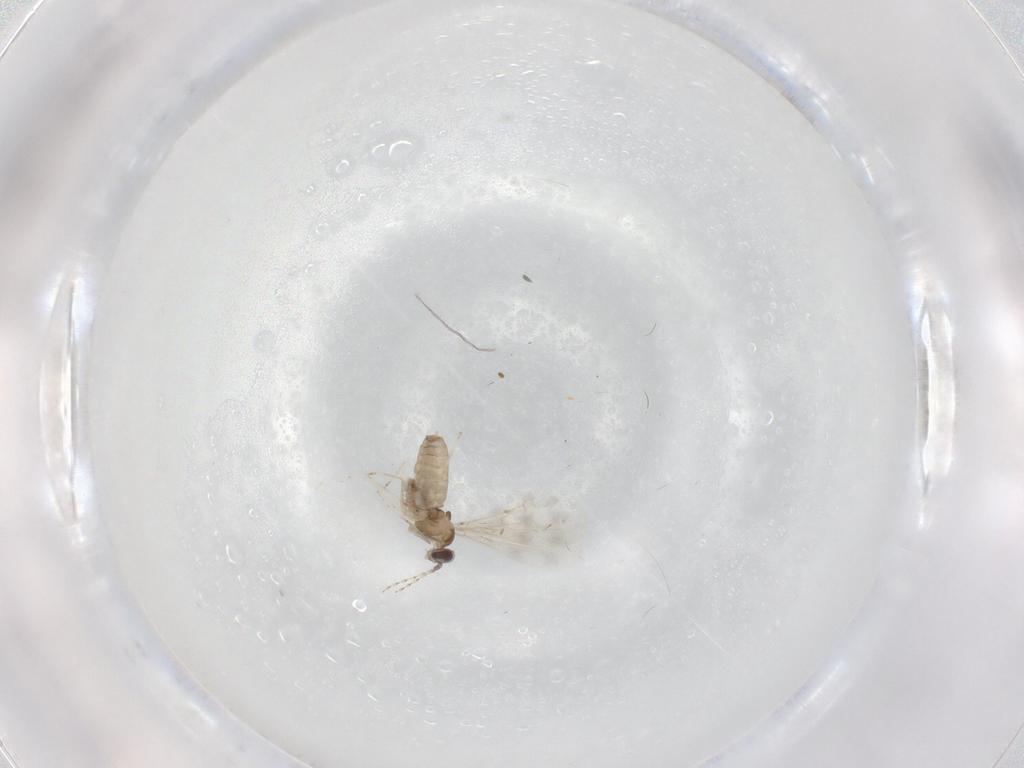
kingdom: Animalia
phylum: Arthropoda
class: Insecta
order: Diptera
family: Cecidomyiidae
